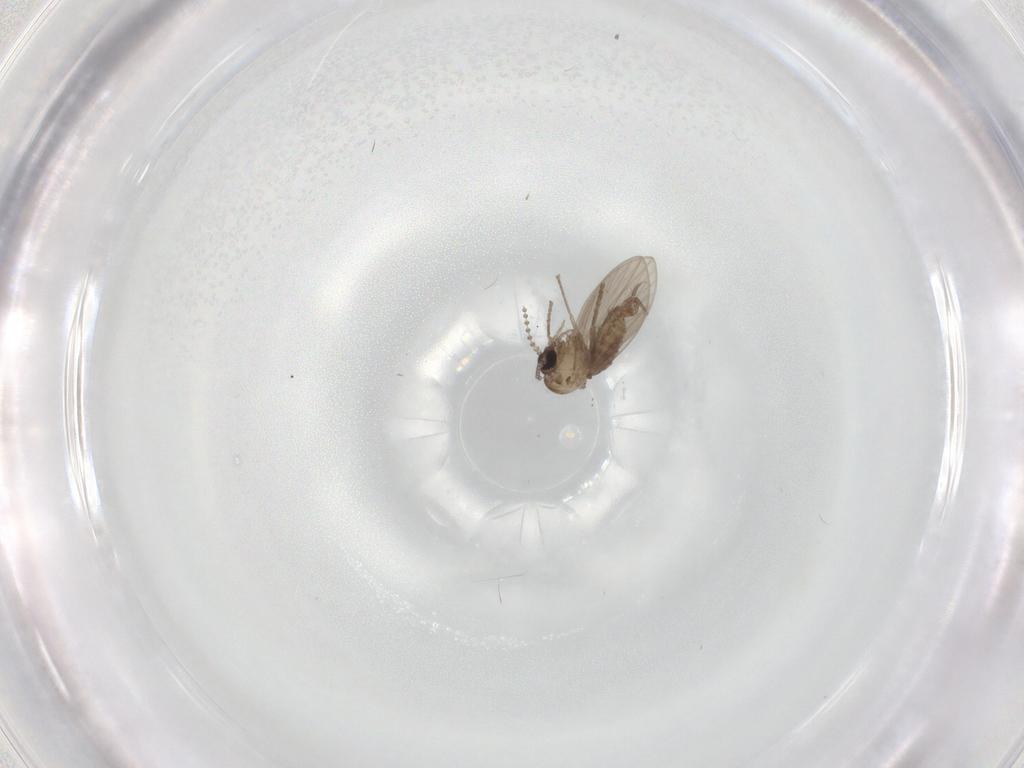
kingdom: Animalia
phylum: Arthropoda
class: Insecta
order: Diptera
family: Psychodidae
